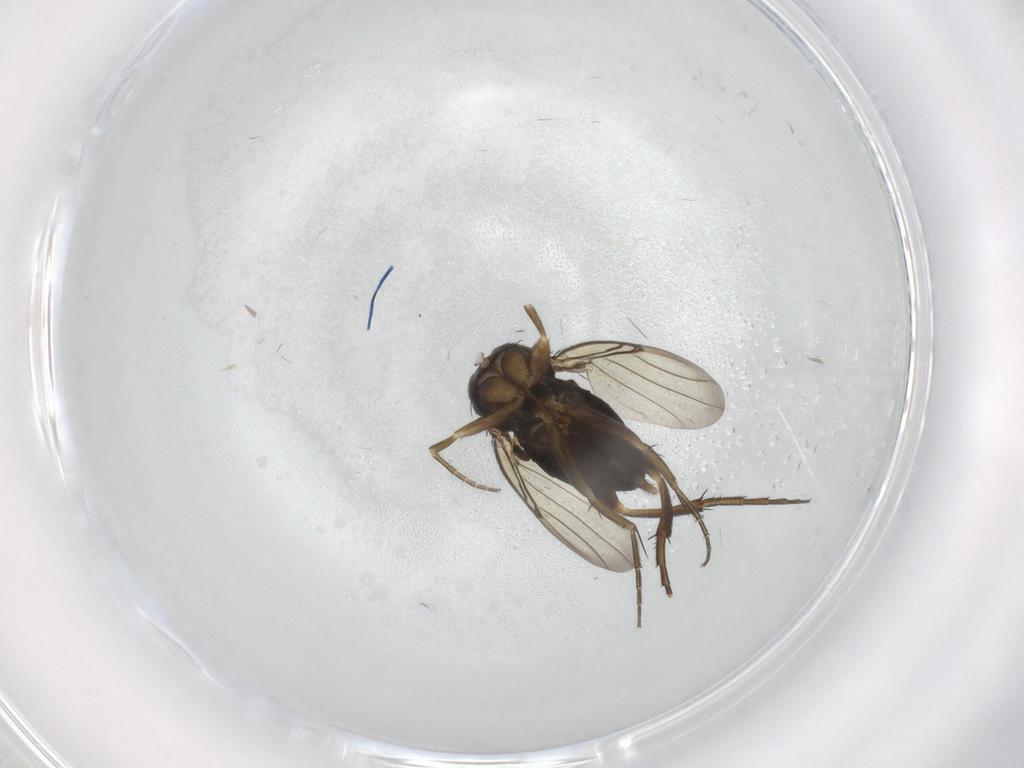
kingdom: Animalia
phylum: Arthropoda
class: Insecta
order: Diptera
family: Phoridae
